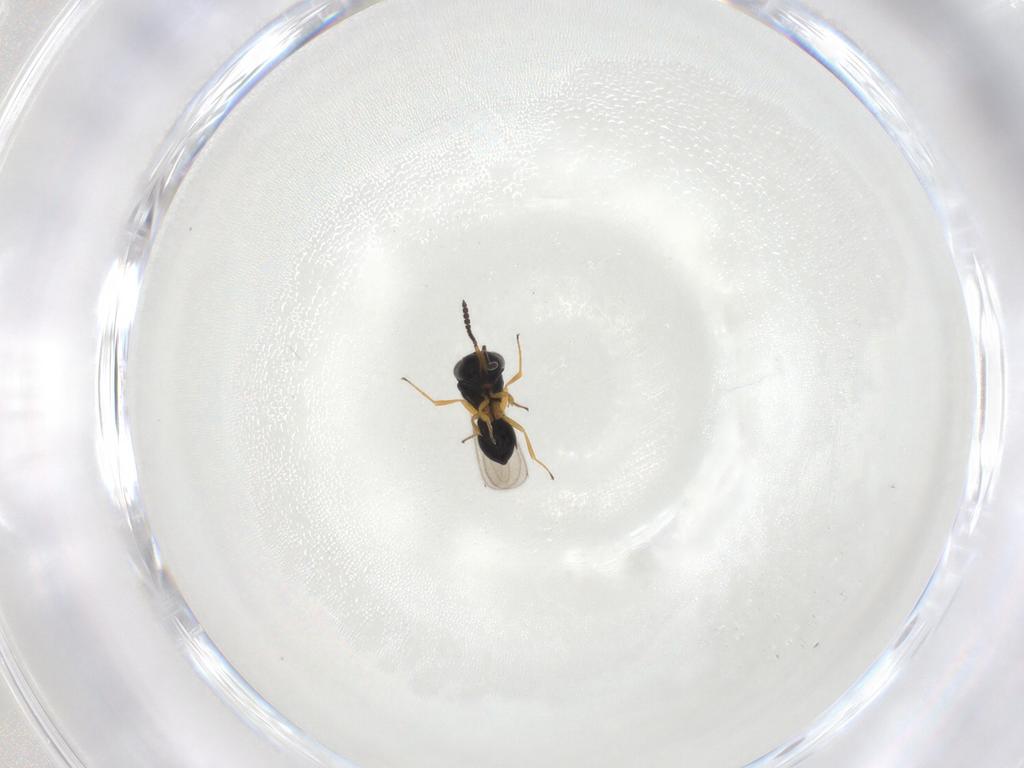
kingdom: Animalia
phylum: Arthropoda
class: Insecta
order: Hymenoptera
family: Scelionidae
